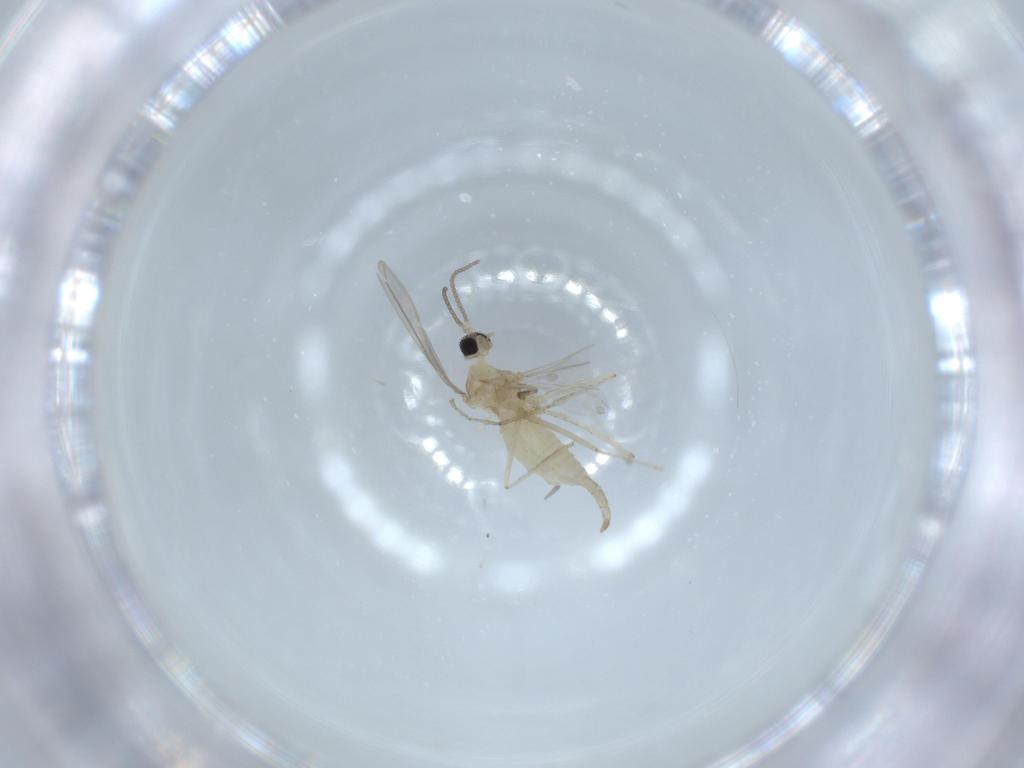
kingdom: Animalia
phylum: Arthropoda
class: Insecta
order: Diptera
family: Cecidomyiidae
